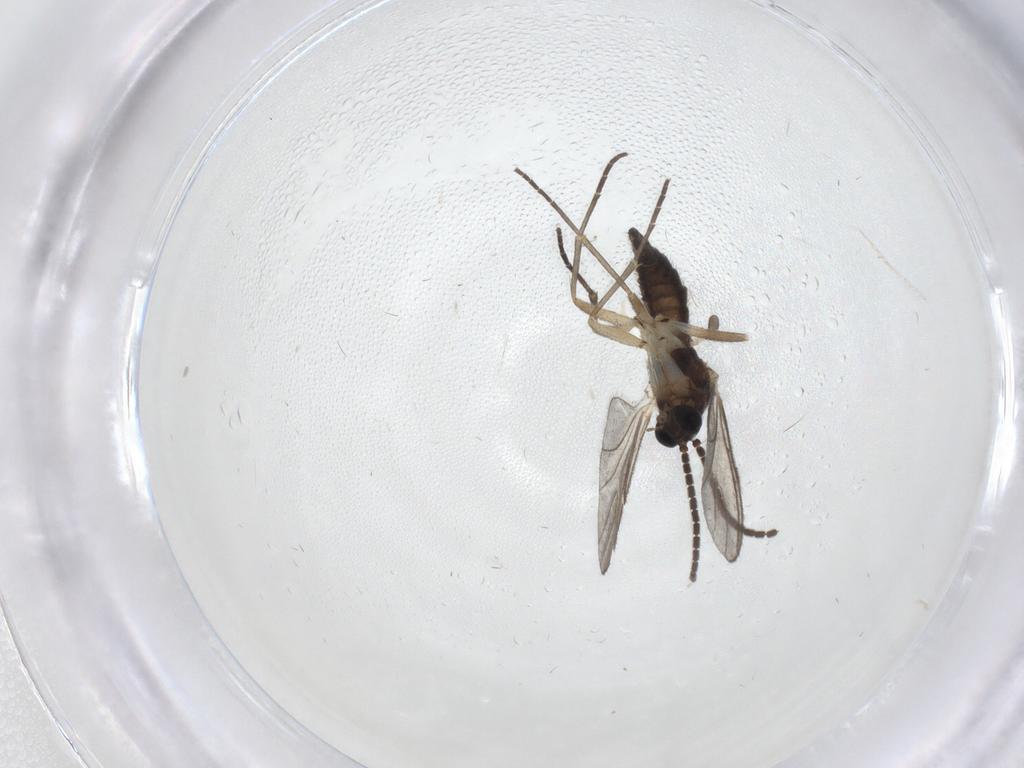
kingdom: Animalia
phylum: Arthropoda
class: Insecta
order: Diptera
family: Sciaridae
